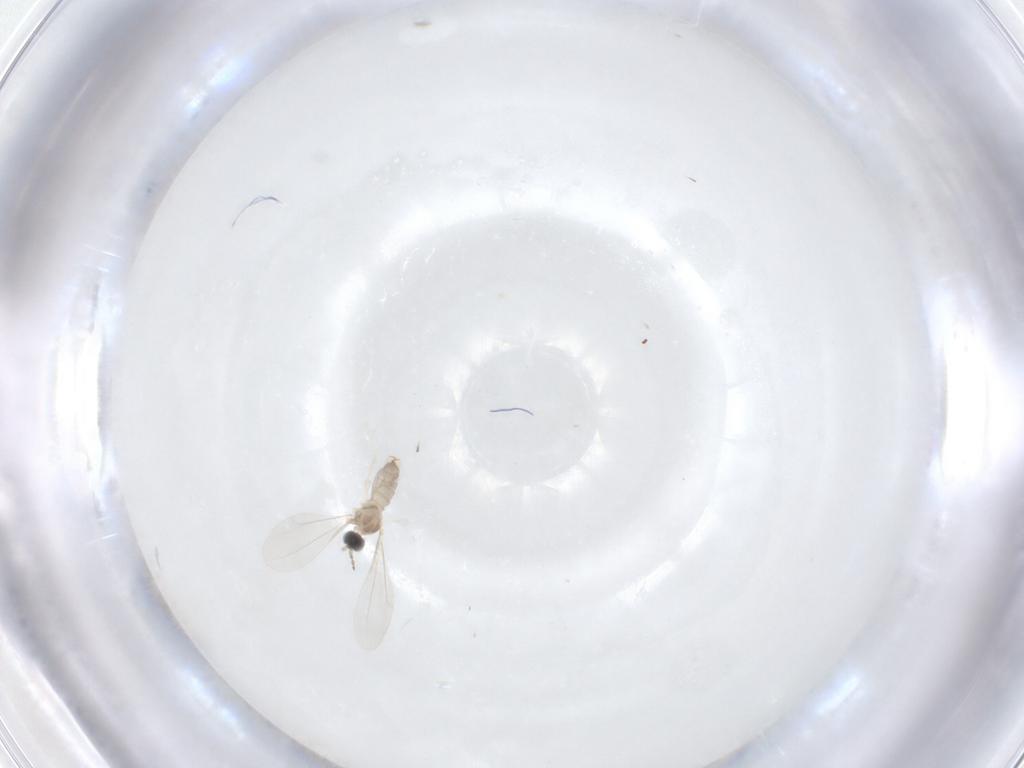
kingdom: Animalia
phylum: Arthropoda
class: Insecta
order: Diptera
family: Cecidomyiidae
